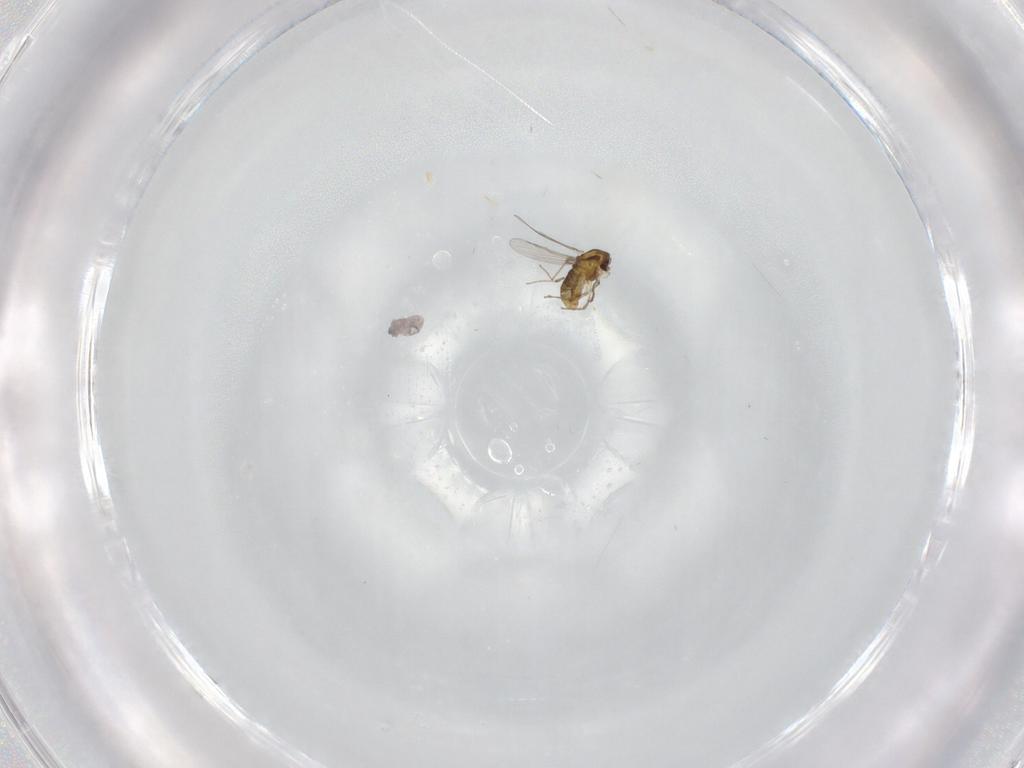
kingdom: Animalia
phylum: Arthropoda
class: Insecta
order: Diptera
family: Chironomidae
